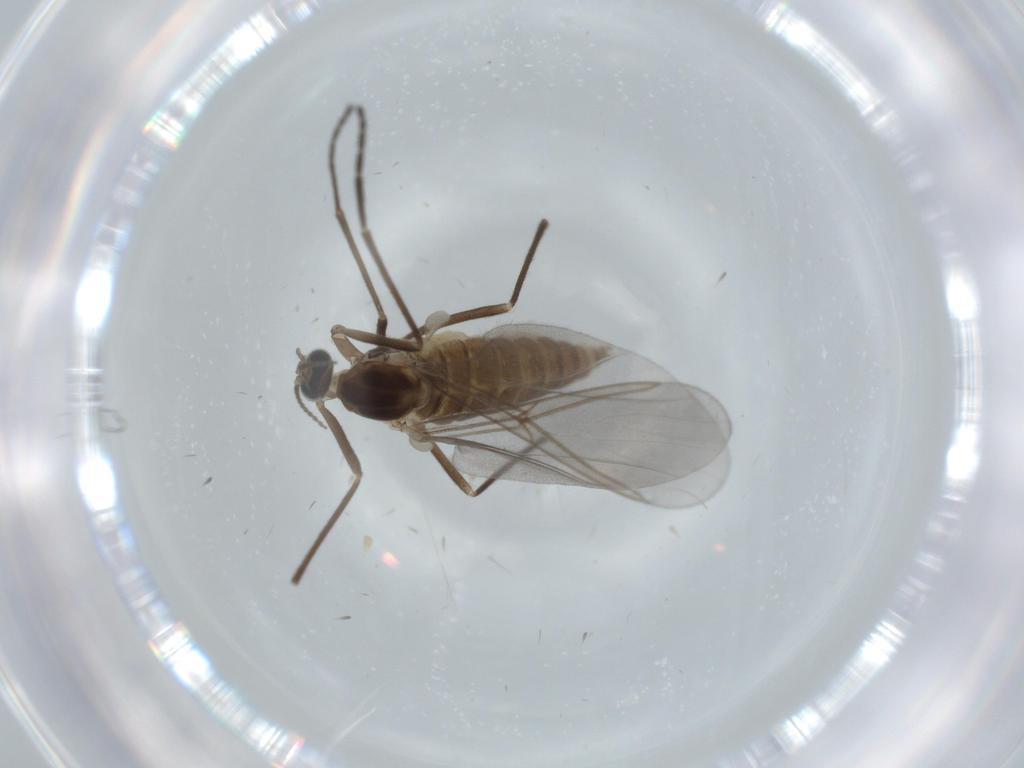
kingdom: Animalia
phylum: Arthropoda
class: Insecta
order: Diptera
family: Cecidomyiidae
